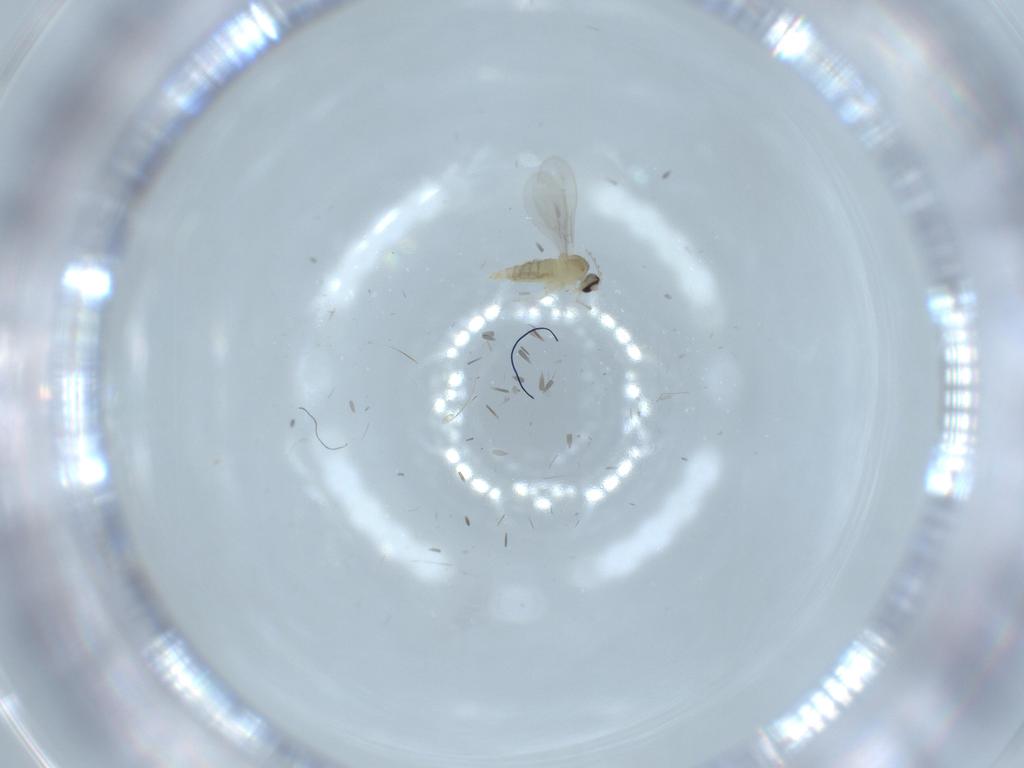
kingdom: Animalia
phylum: Arthropoda
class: Insecta
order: Diptera
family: Cecidomyiidae
